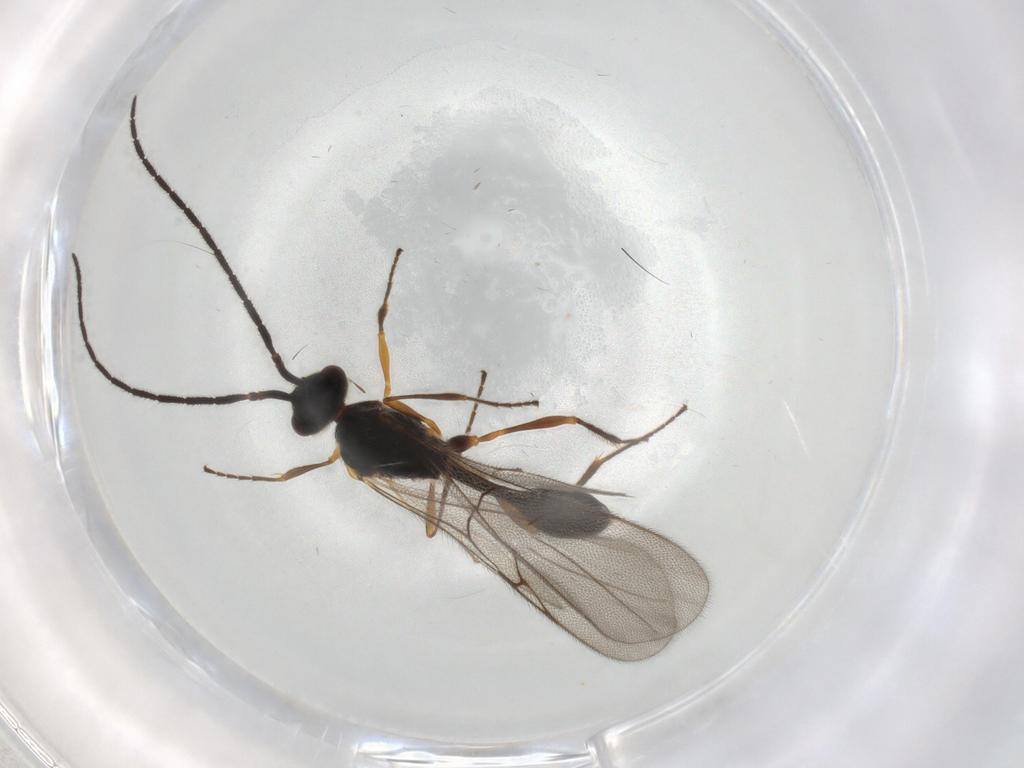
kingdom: Animalia
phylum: Arthropoda
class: Insecta
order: Hymenoptera
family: Diapriidae
